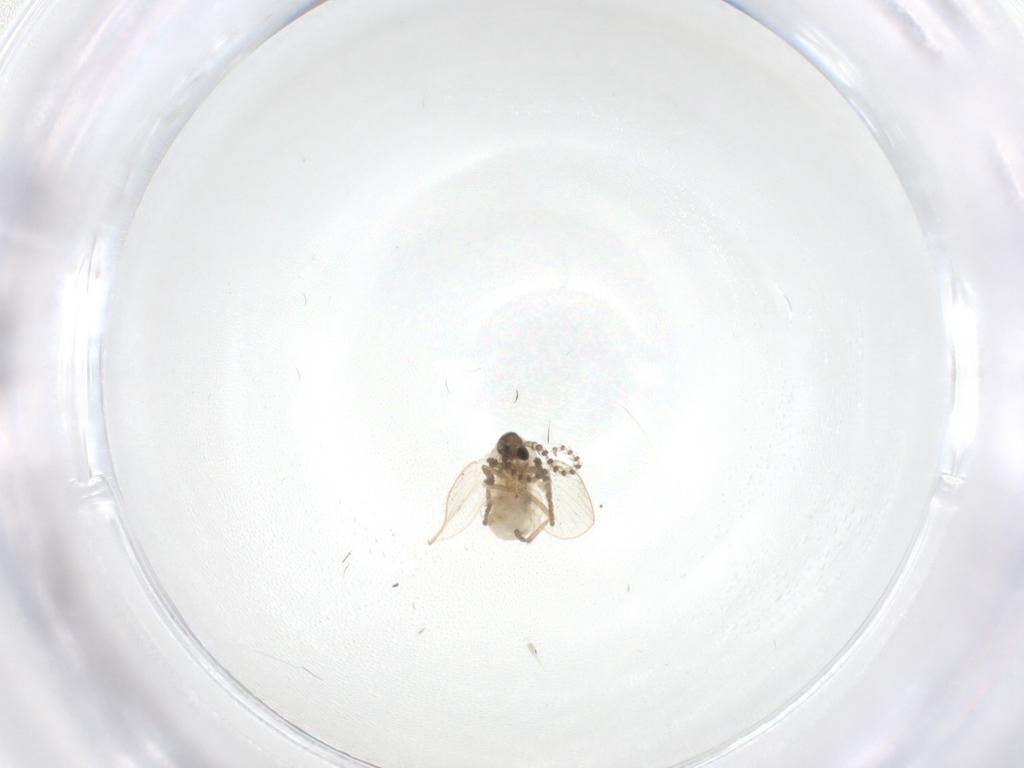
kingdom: Animalia
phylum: Arthropoda
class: Insecta
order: Diptera
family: Psychodidae
